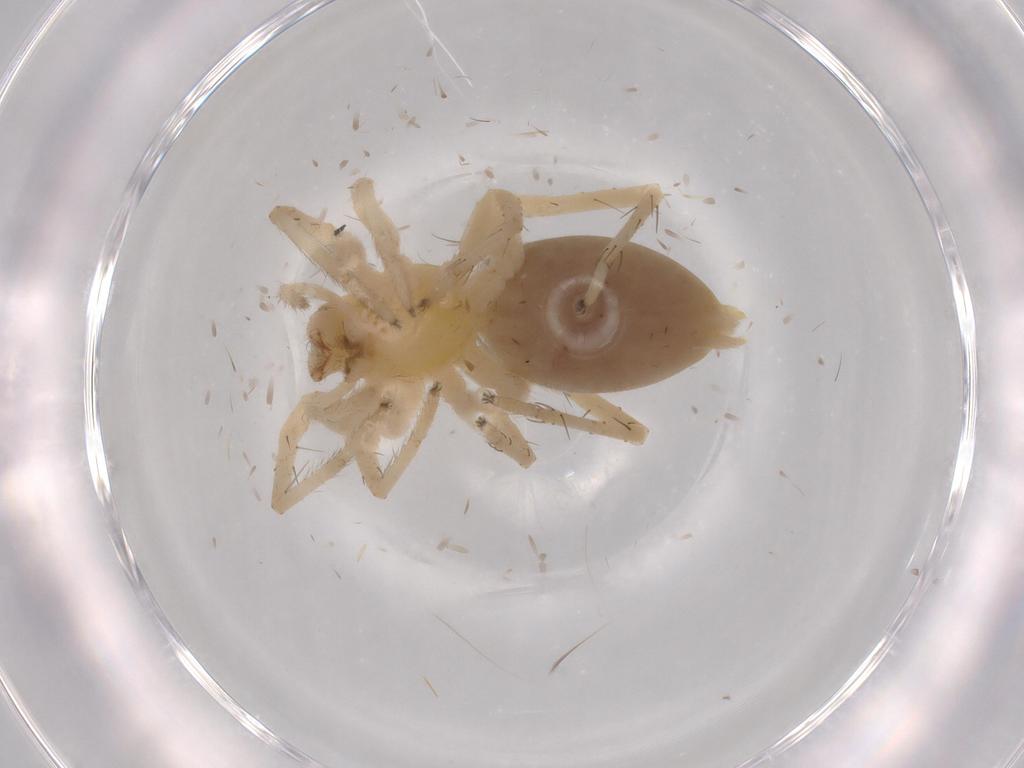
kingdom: Animalia
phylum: Arthropoda
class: Arachnida
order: Araneae
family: Anyphaenidae
